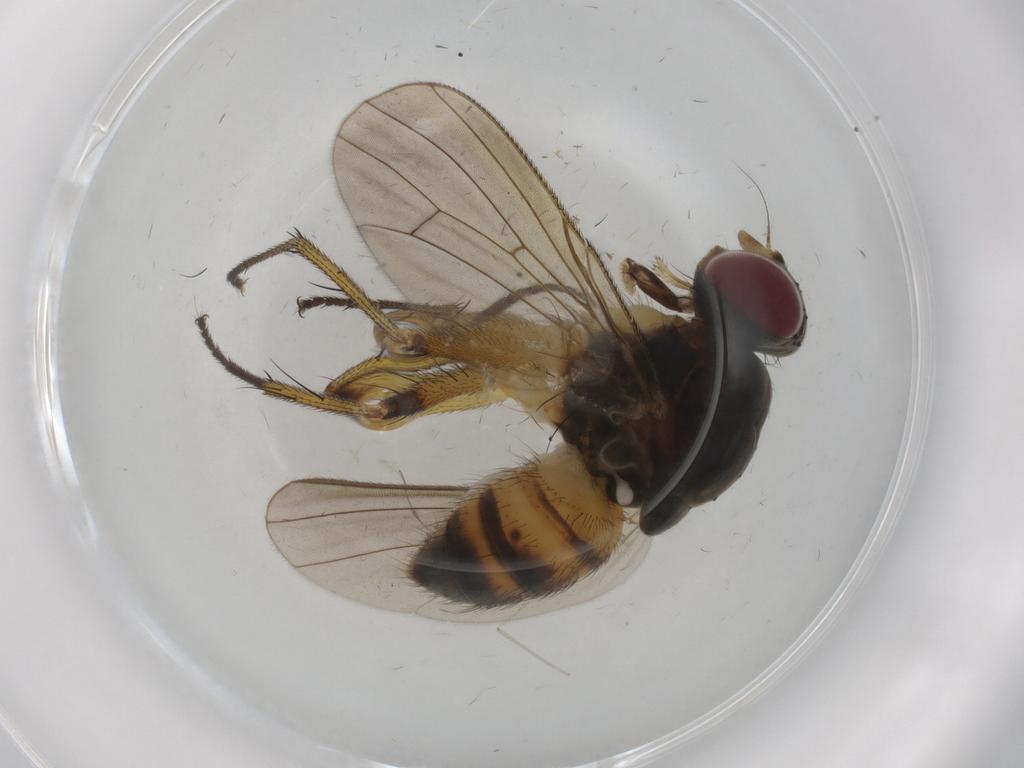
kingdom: Animalia
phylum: Arthropoda
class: Insecta
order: Diptera
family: Muscidae
